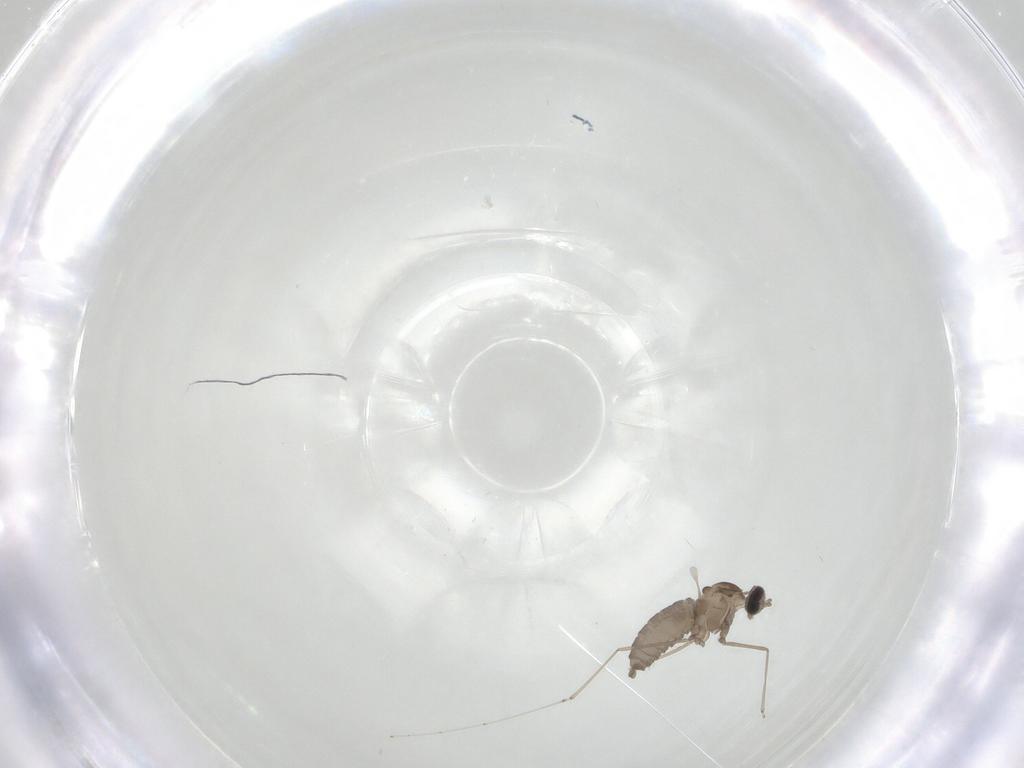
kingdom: Animalia
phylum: Arthropoda
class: Insecta
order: Diptera
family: Cecidomyiidae
